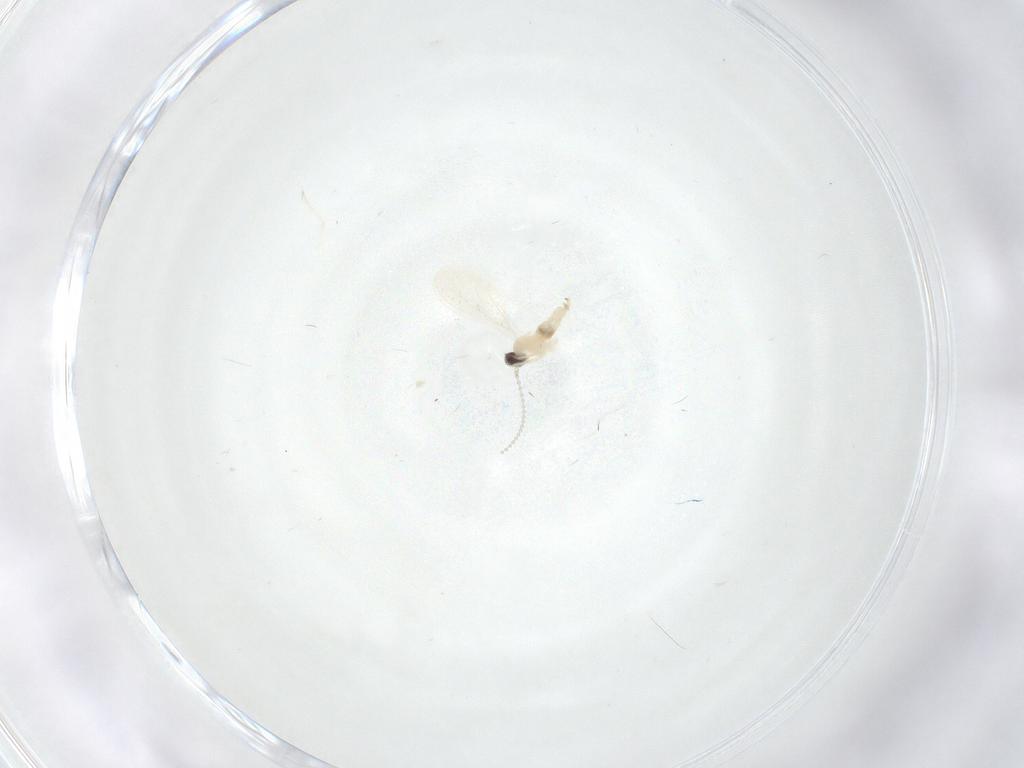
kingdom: Animalia
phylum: Arthropoda
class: Insecta
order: Diptera
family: Cecidomyiidae
